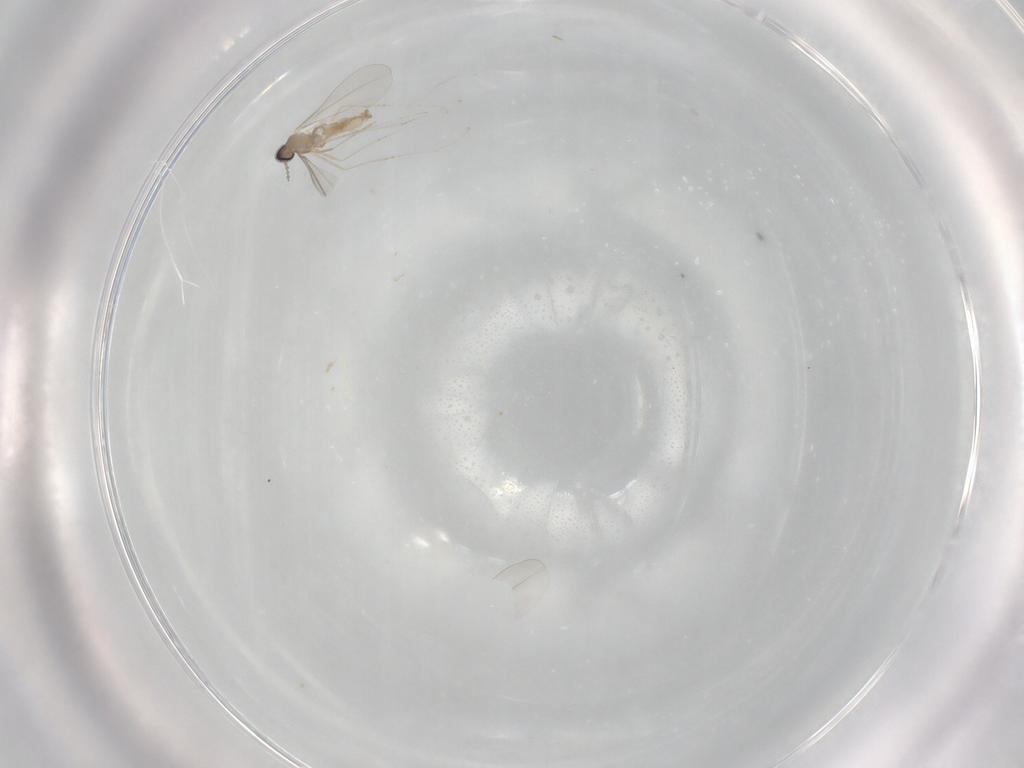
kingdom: Animalia
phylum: Arthropoda
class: Insecta
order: Diptera
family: Dolichopodidae
